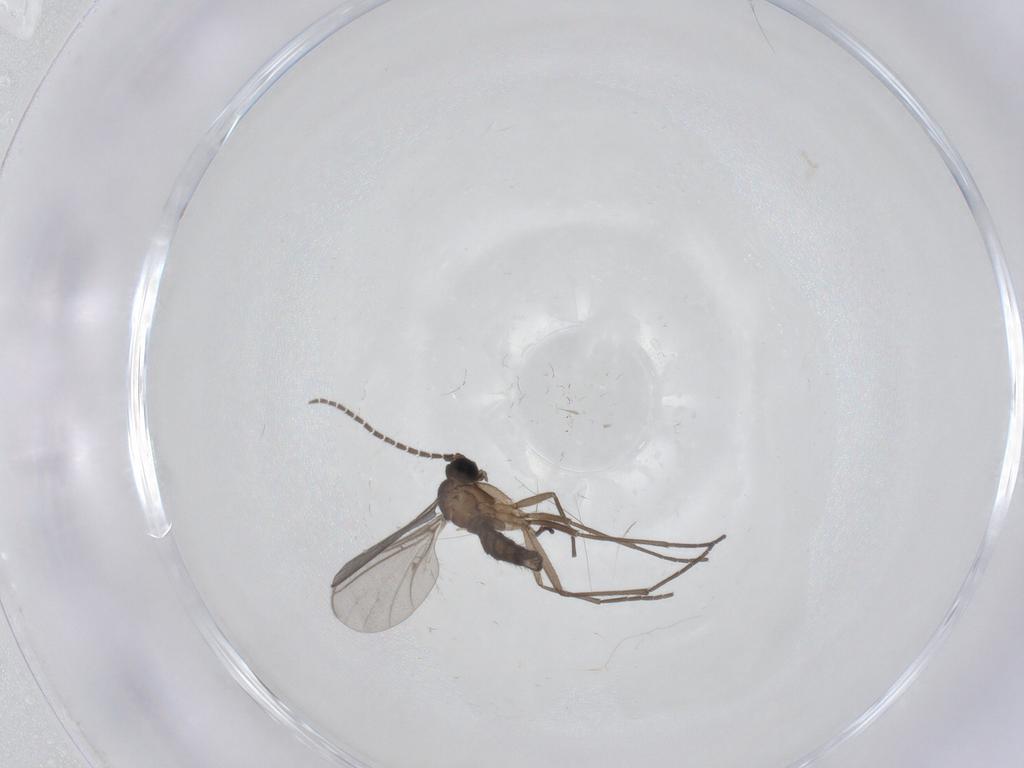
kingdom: Animalia
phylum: Arthropoda
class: Insecta
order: Diptera
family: Sciaridae
